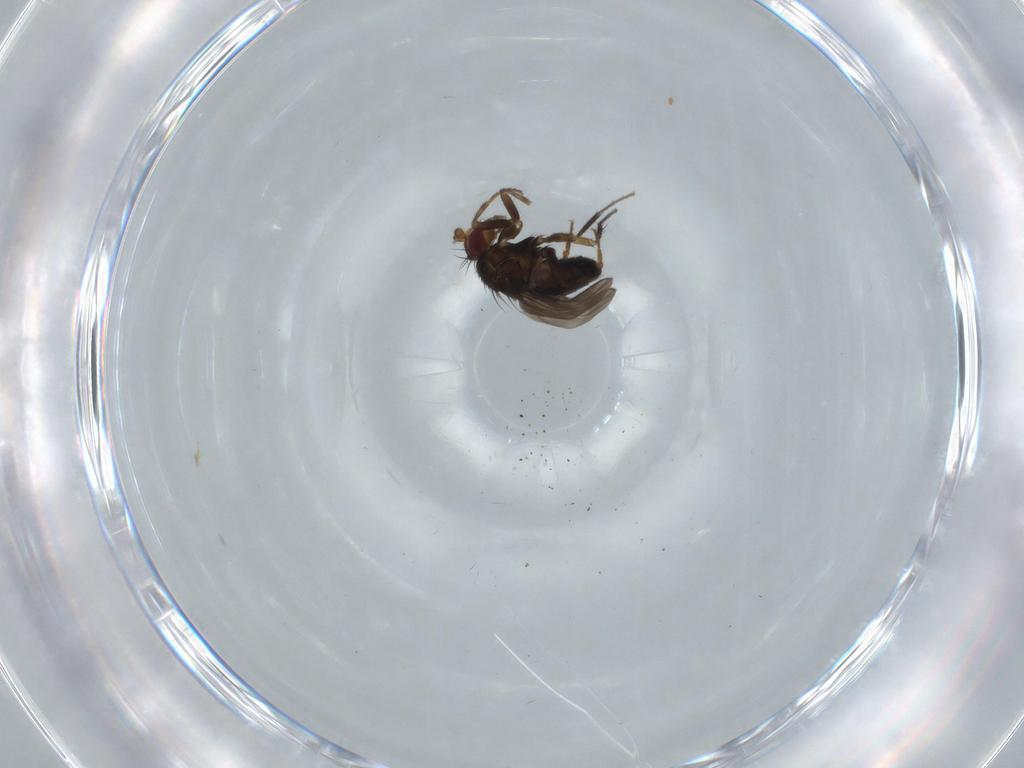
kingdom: Animalia
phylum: Arthropoda
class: Insecta
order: Diptera
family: Sphaeroceridae
